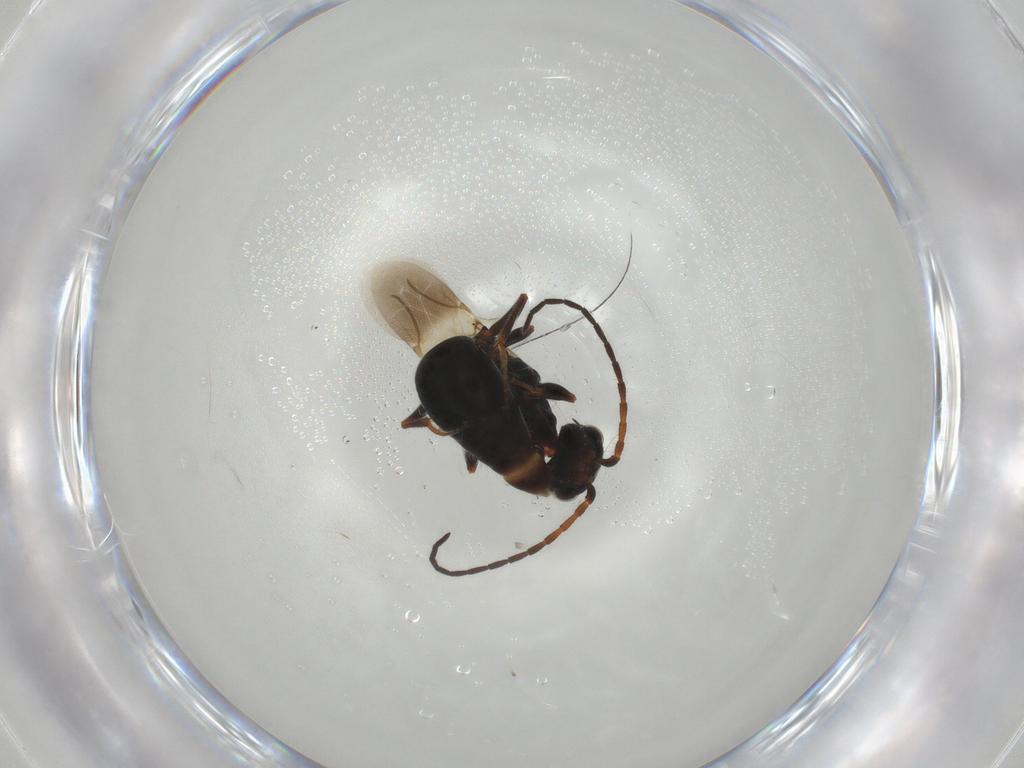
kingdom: Animalia
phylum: Arthropoda
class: Insecta
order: Hymenoptera
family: Bethylidae
